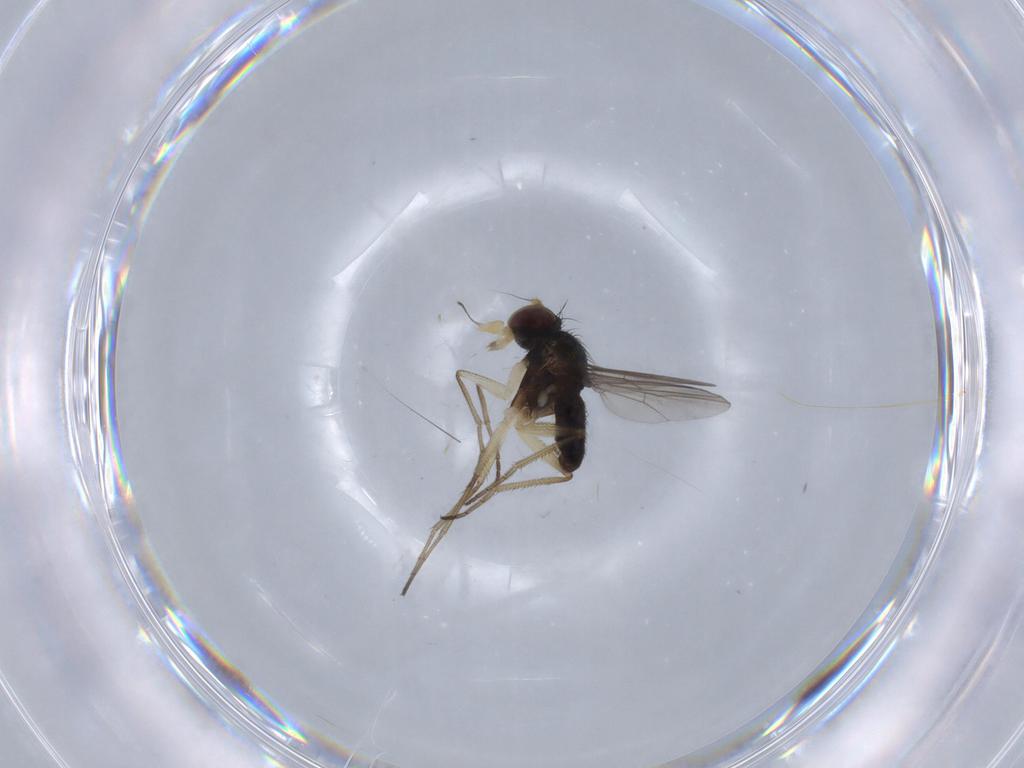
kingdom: Animalia
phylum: Arthropoda
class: Insecta
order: Diptera
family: Dolichopodidae
